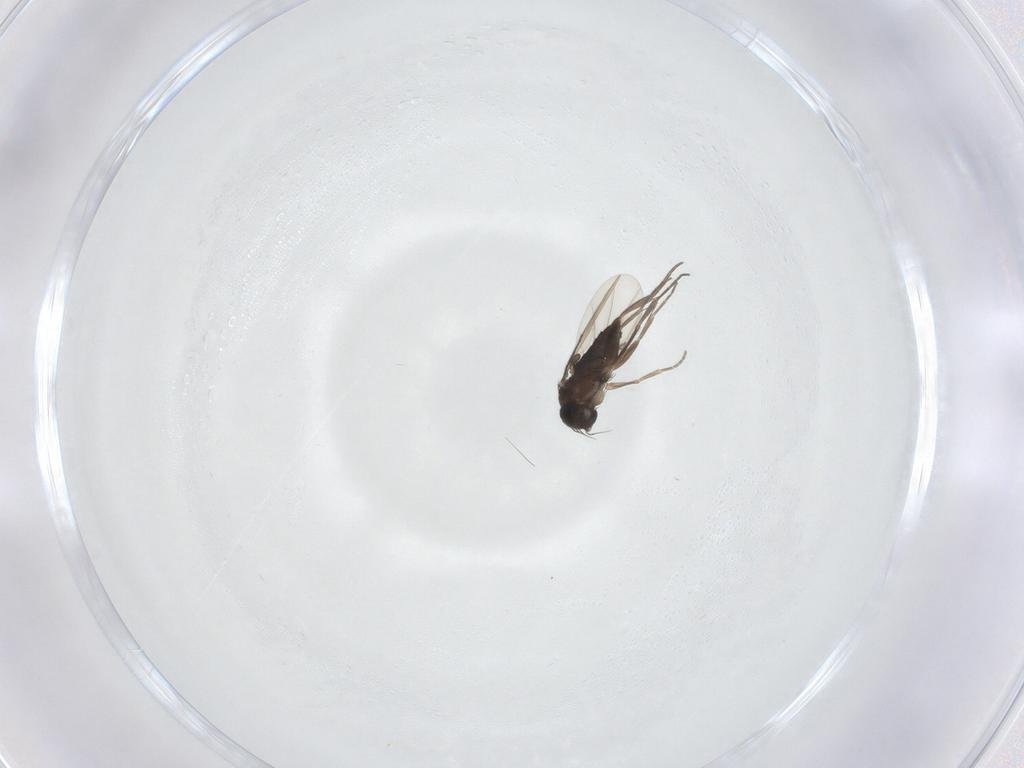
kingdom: Animalia
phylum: Arthropoda
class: Insecta
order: Diptera
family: Phoridae
